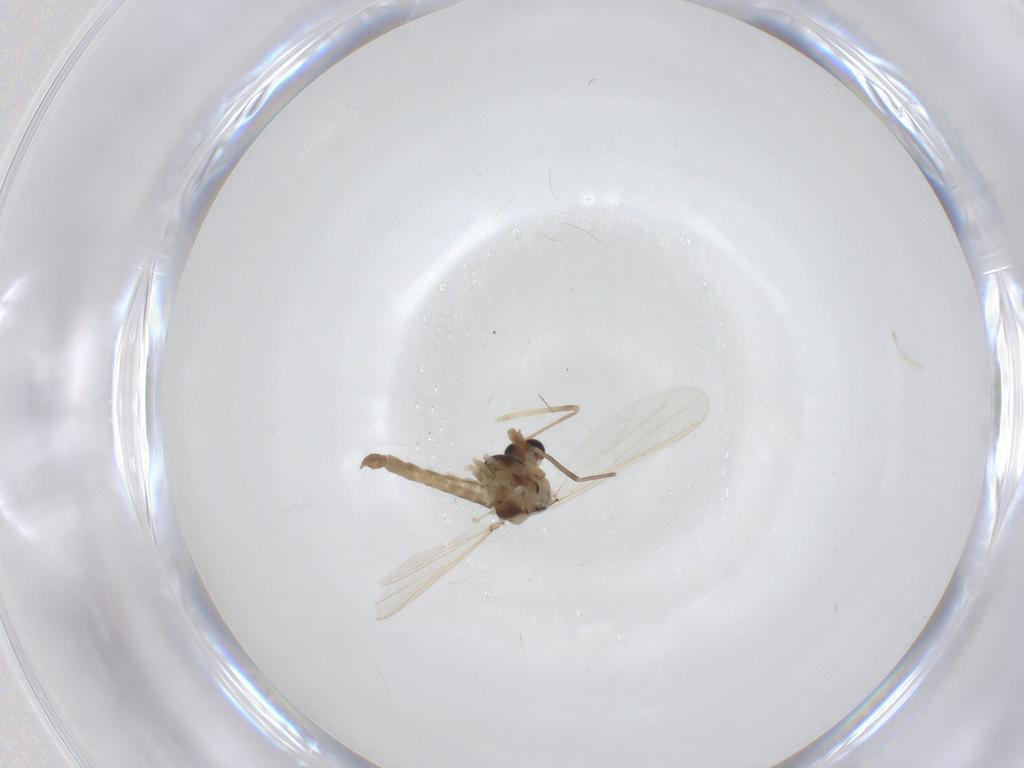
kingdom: Animalia
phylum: Arthropoda
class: Insecta
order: Diptera
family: Chironomidae
